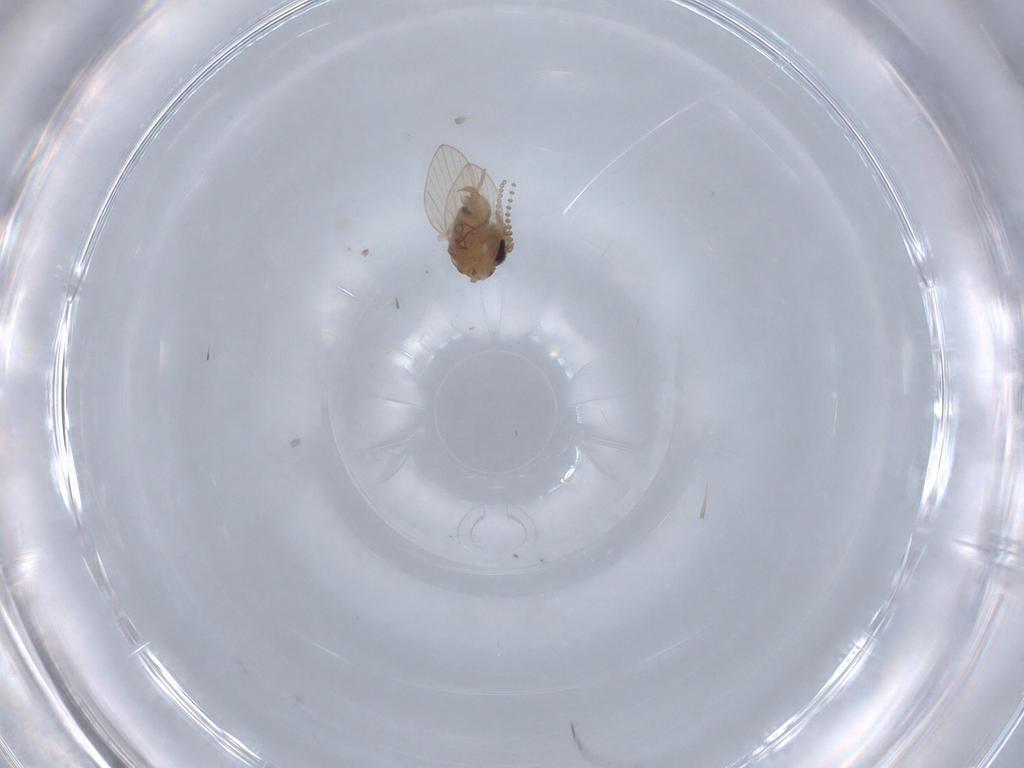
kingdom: Animalia
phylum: Arthropoda
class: Insecta
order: Diptera
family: Psychodidae
